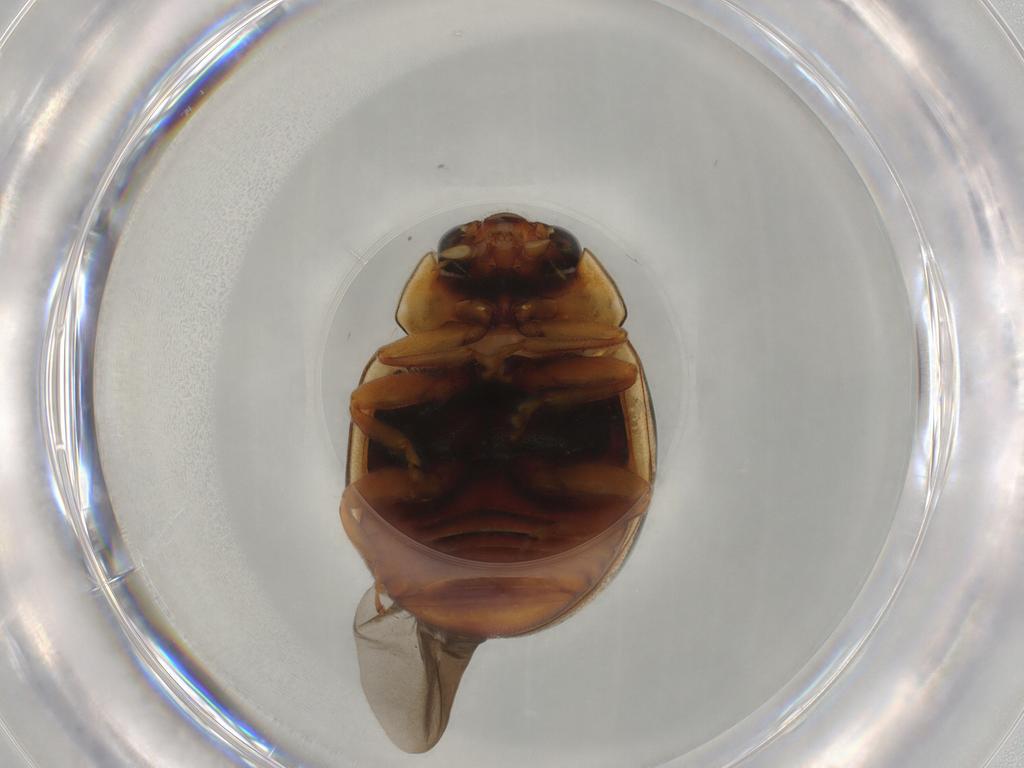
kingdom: Animalia
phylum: Arthropoda
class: Insecta
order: Coleoptera
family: Coccinellidae
